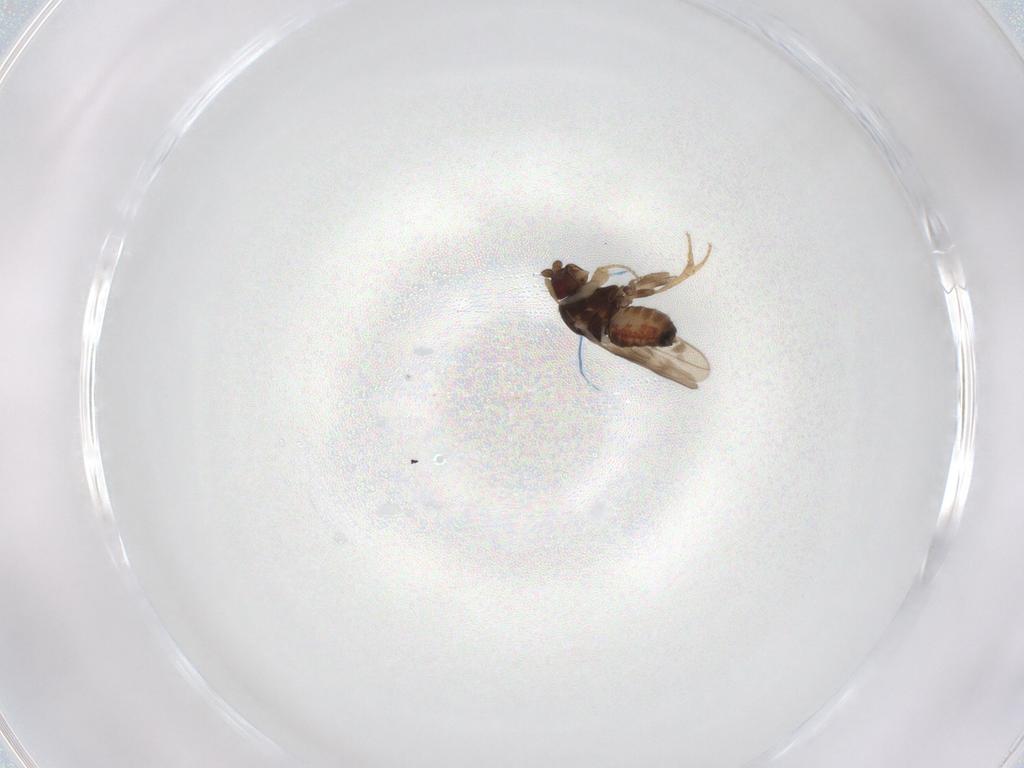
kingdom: Animalia
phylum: Arthropoda
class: Insecta
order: Diptera
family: Sphaeroceridae
